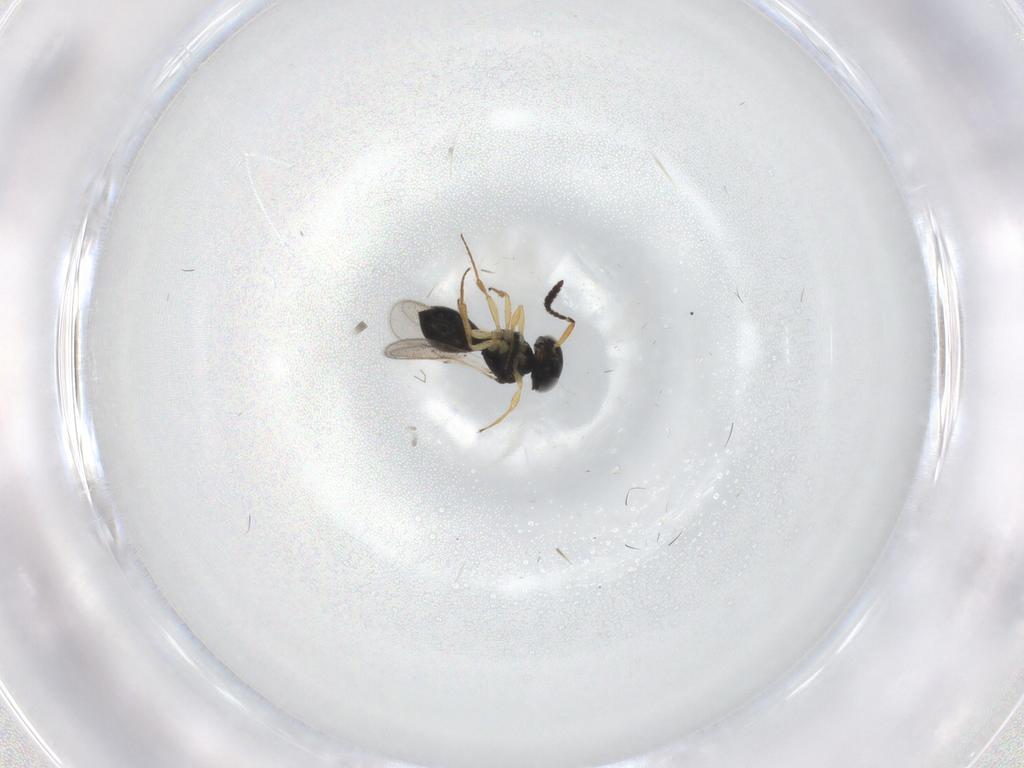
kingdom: Animalia
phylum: Arthropoda
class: Insecta
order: Hymenoptera
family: Scelionidae
